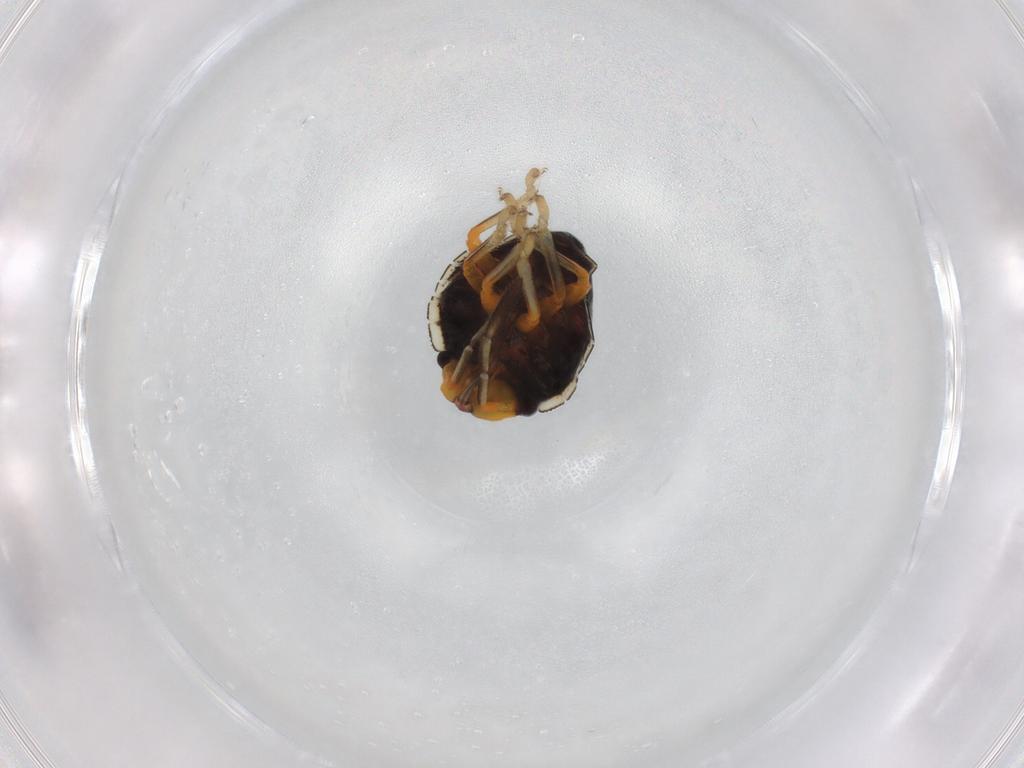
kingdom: Animalia
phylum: Arthropoda
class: Insecta
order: Hemiptera
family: Pentatomidae
